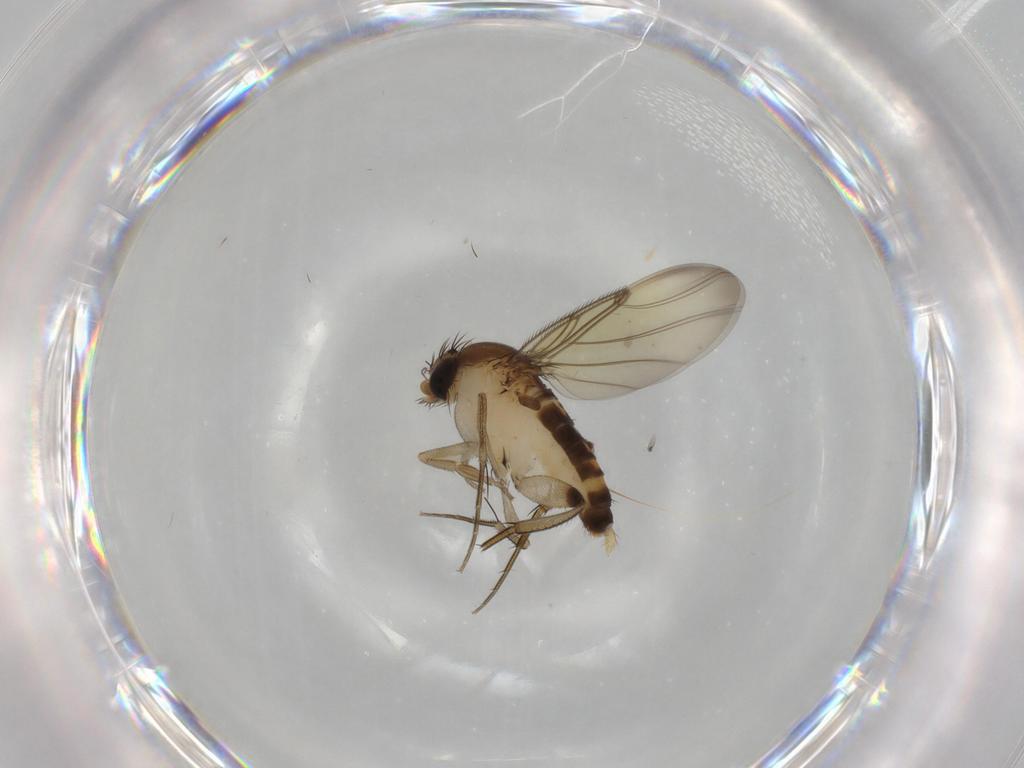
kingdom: Animalia
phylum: Arthropoda
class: Insecta
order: Diptera
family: Phoridae
